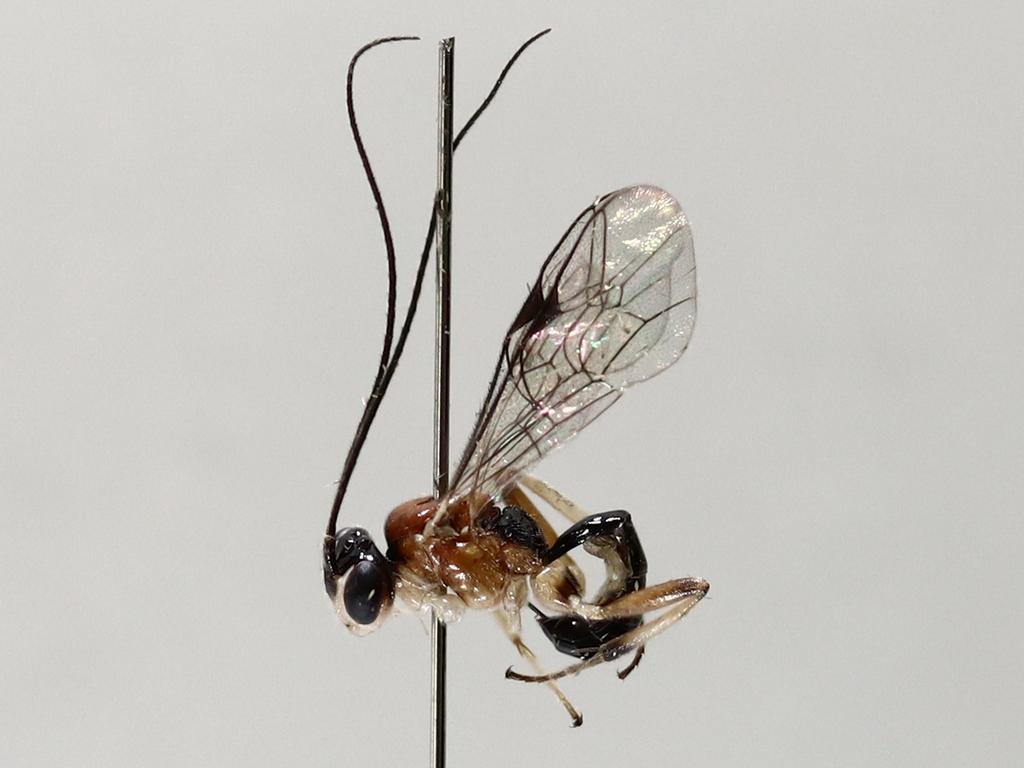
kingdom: Animalia
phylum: Arthropoda
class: Insecta
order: Diptera
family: Cecidomyiidae
